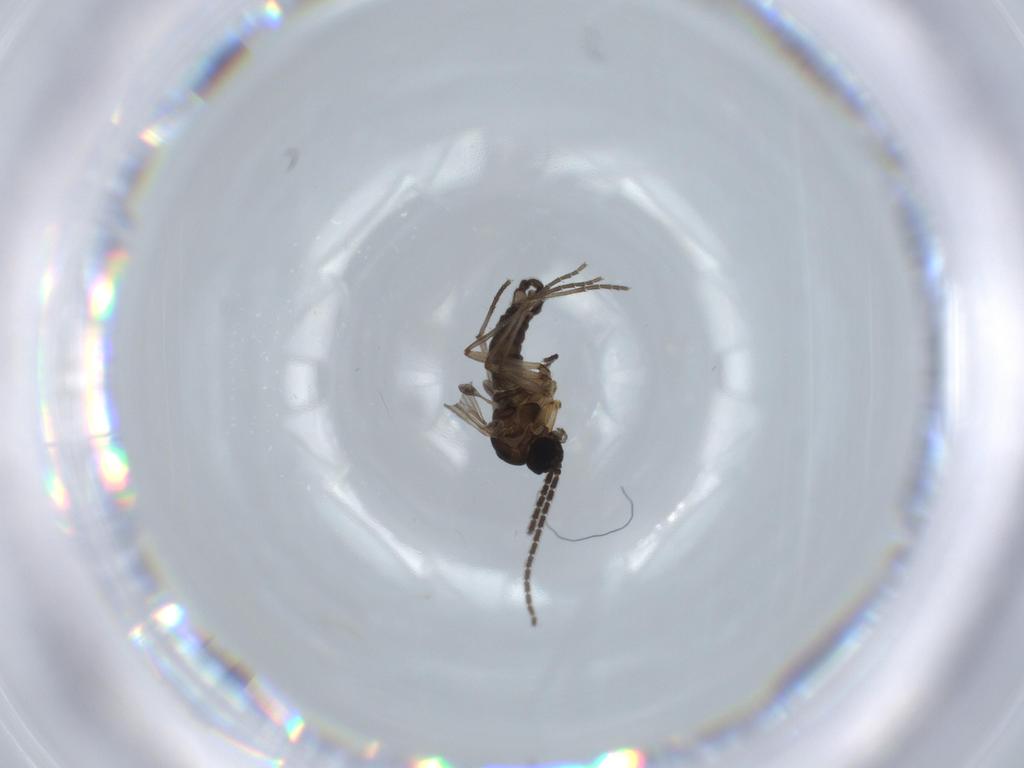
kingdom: Animalia
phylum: Arthropoda
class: Insecta
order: Diptera
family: Sciaridae
